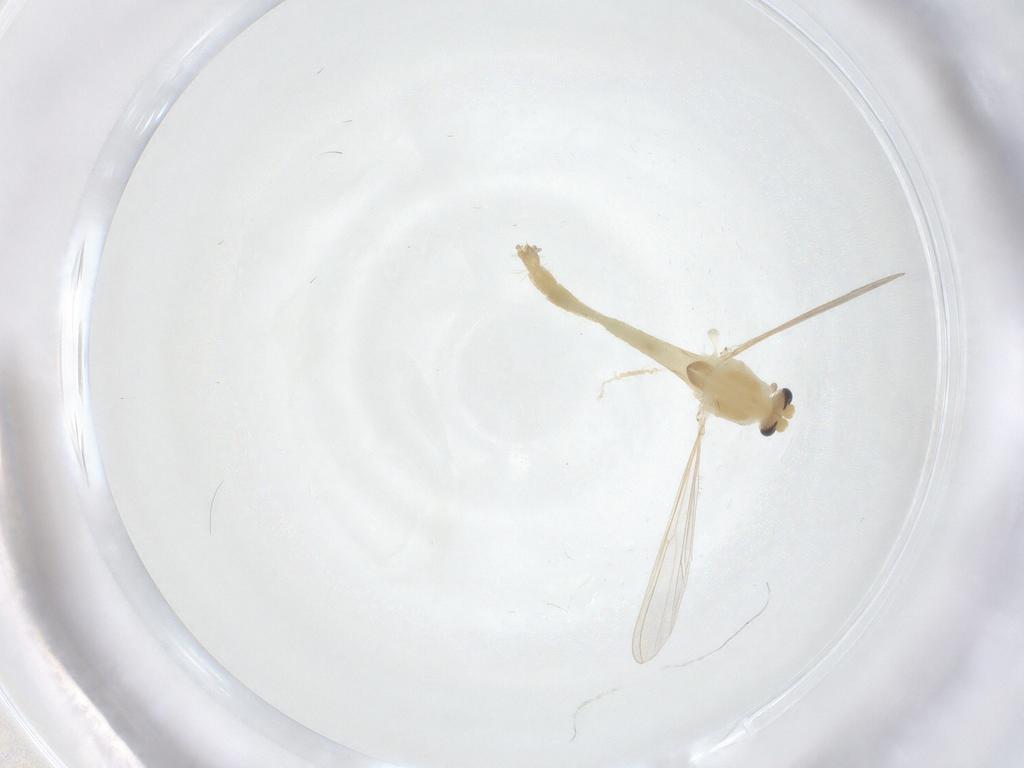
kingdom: Animalia
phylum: Arthropoda
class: Insecta
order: Diptera
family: Chironomidae
